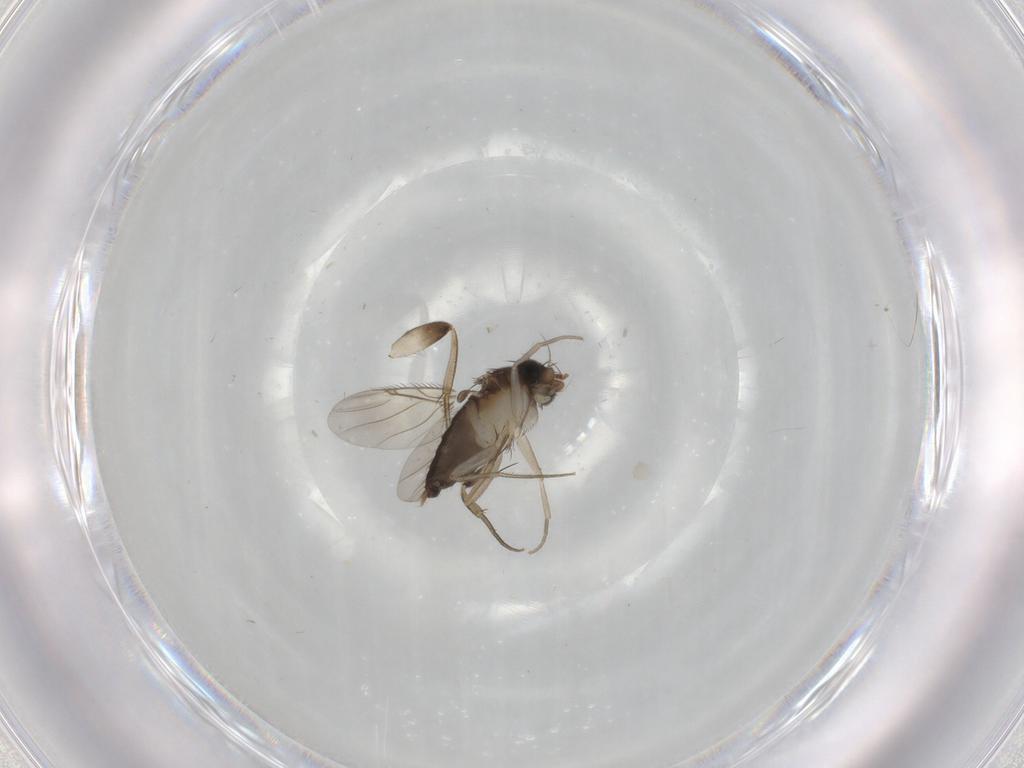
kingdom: Animalia
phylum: Arthropoda
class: Insecta
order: Diptera
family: Phoridae
